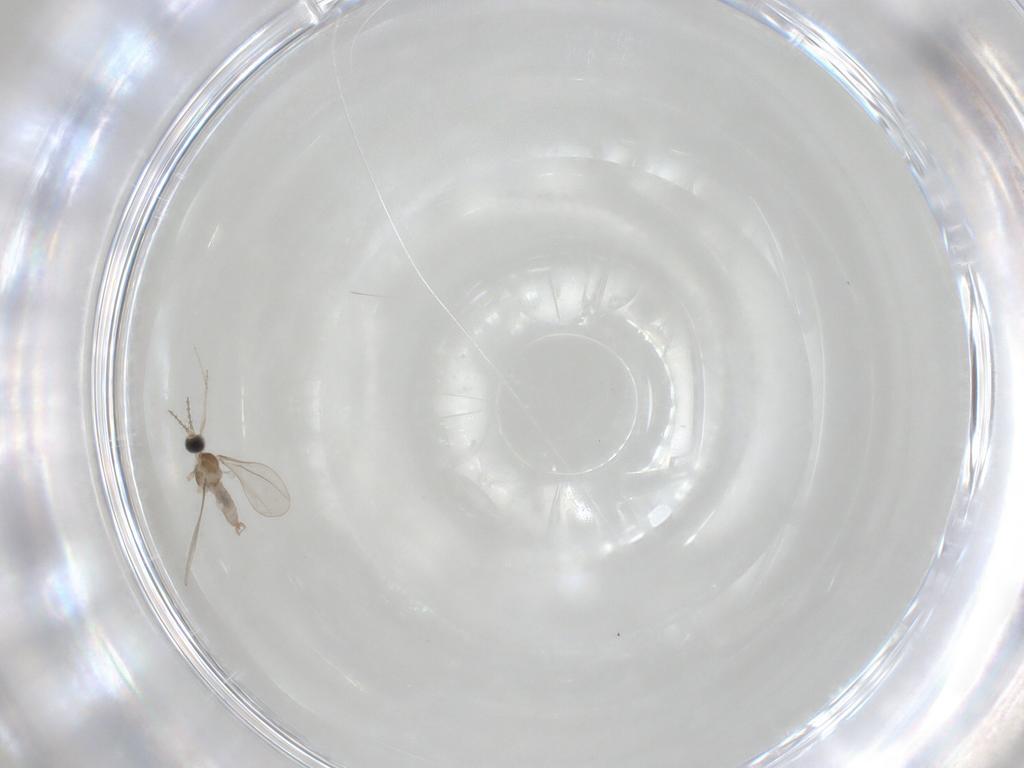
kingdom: Animalia
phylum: Arthropoda
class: Insecta
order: Diptera
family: Cecidomyiidae
